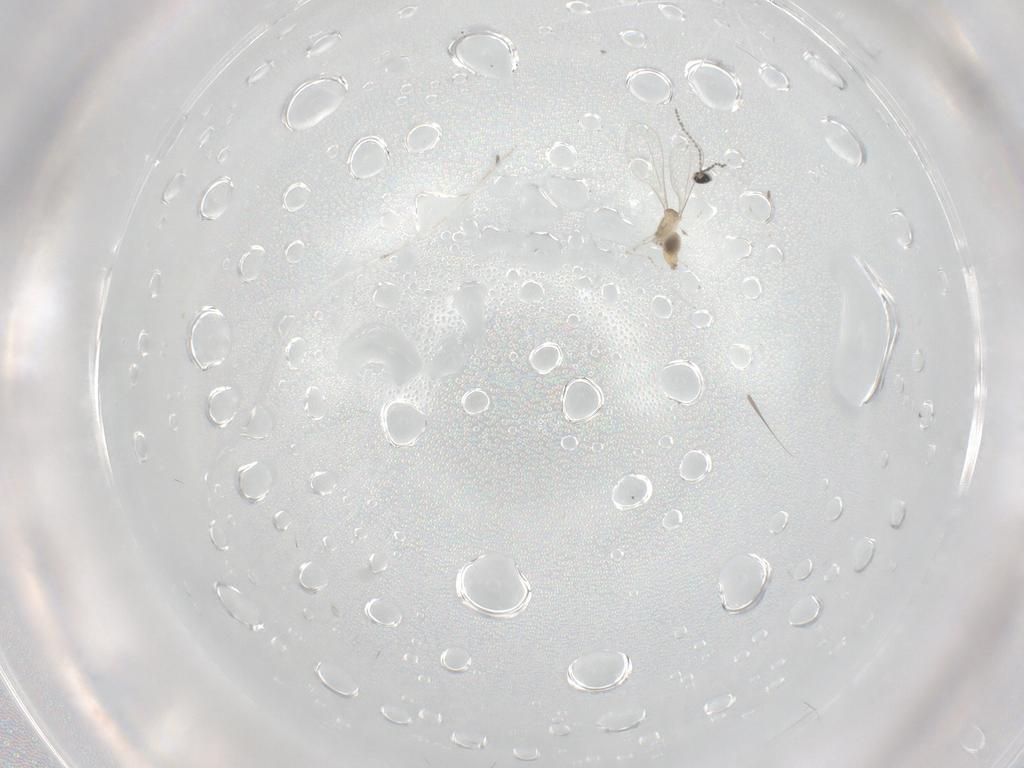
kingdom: Animalia
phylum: Arthropoda
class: Insecta
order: Diptera
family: Cecidomyiidae
